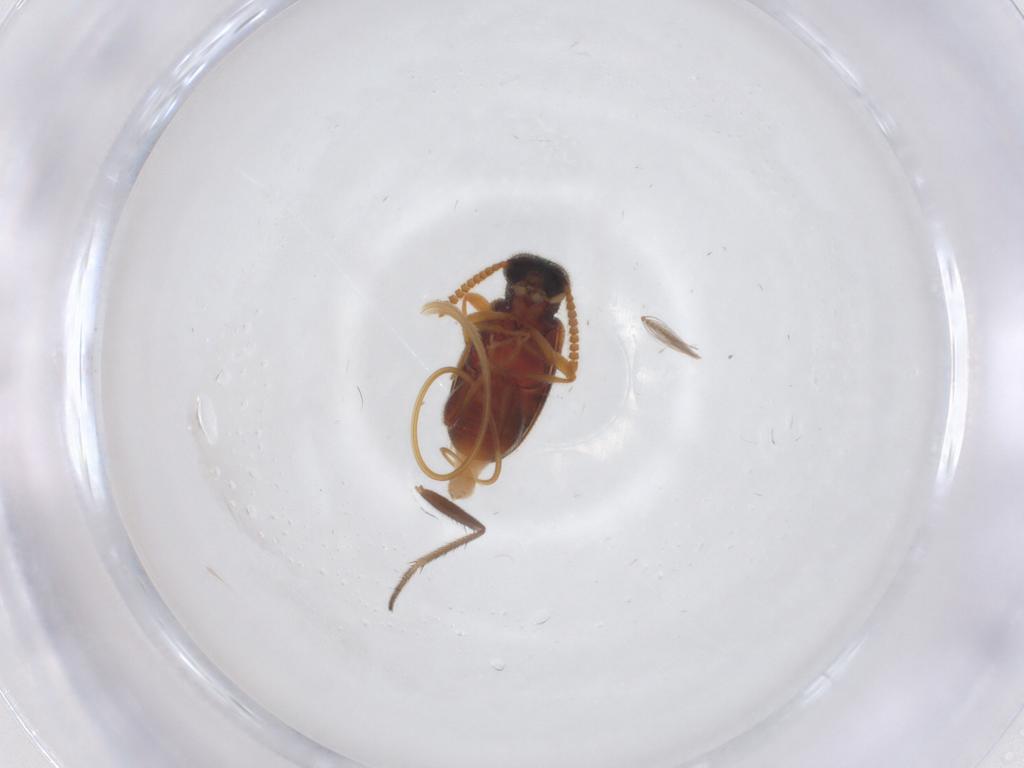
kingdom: Animalia
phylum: Arthropoda
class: Insecta
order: Coleoptera
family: Aderidae
